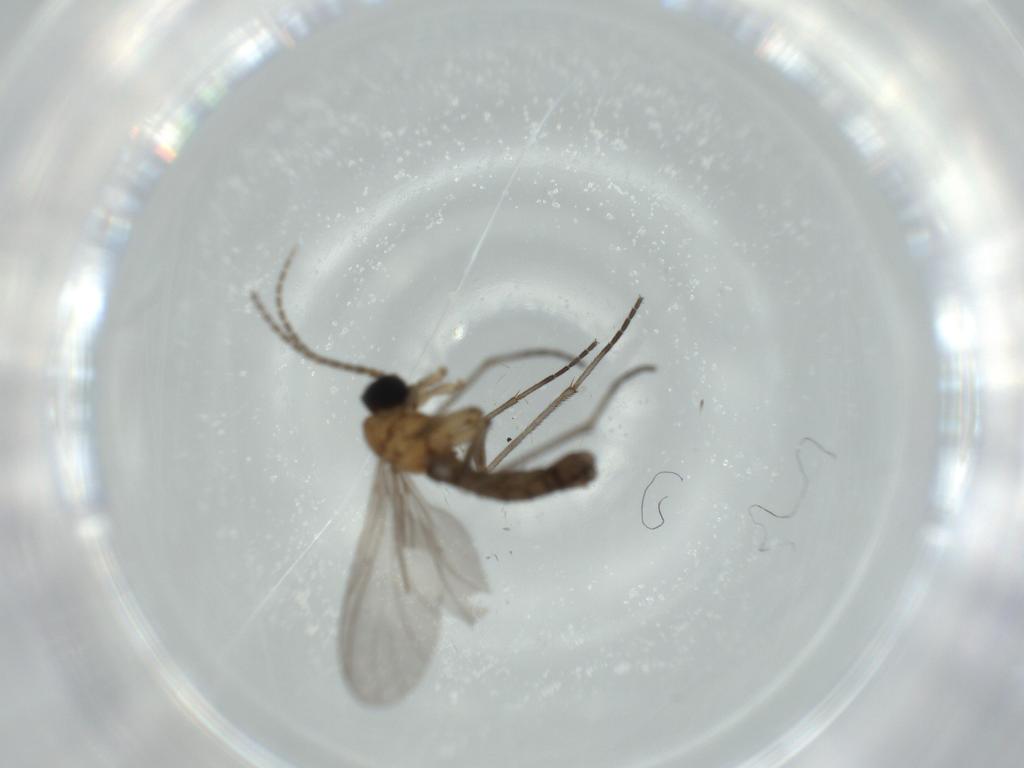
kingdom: Animalia
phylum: Arthropoda
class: Insecta
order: Diptera
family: Sciaridae
